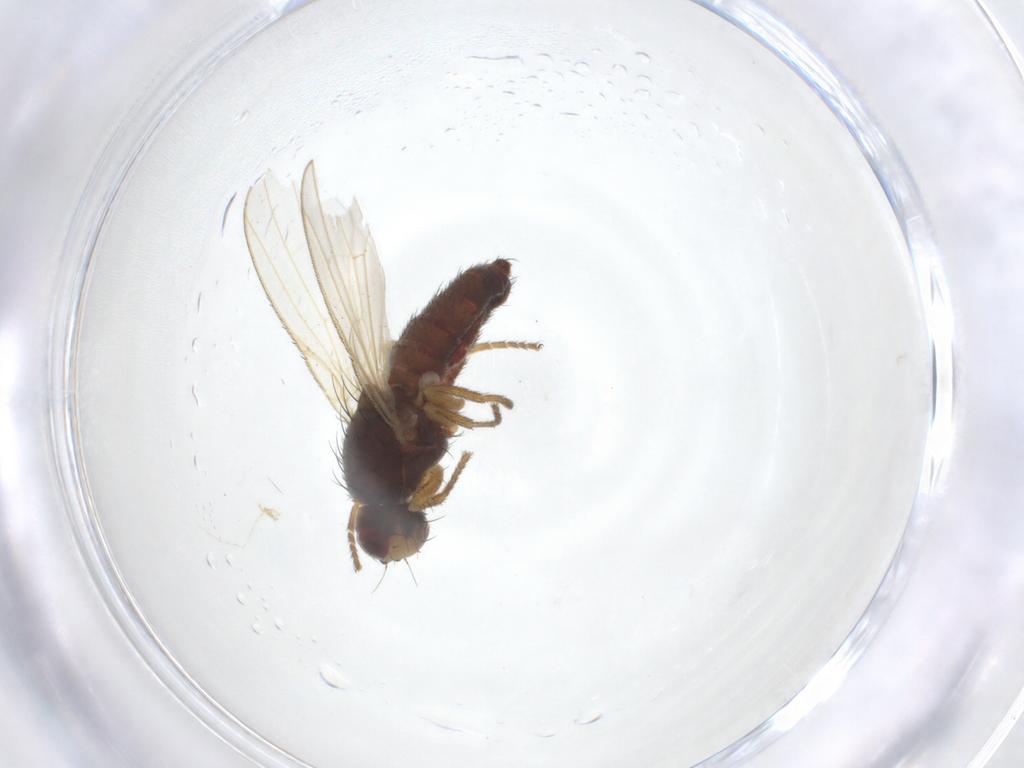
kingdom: Animalia
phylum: Arthropoda
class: Insecta
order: Diptera
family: Heleomyzidae
